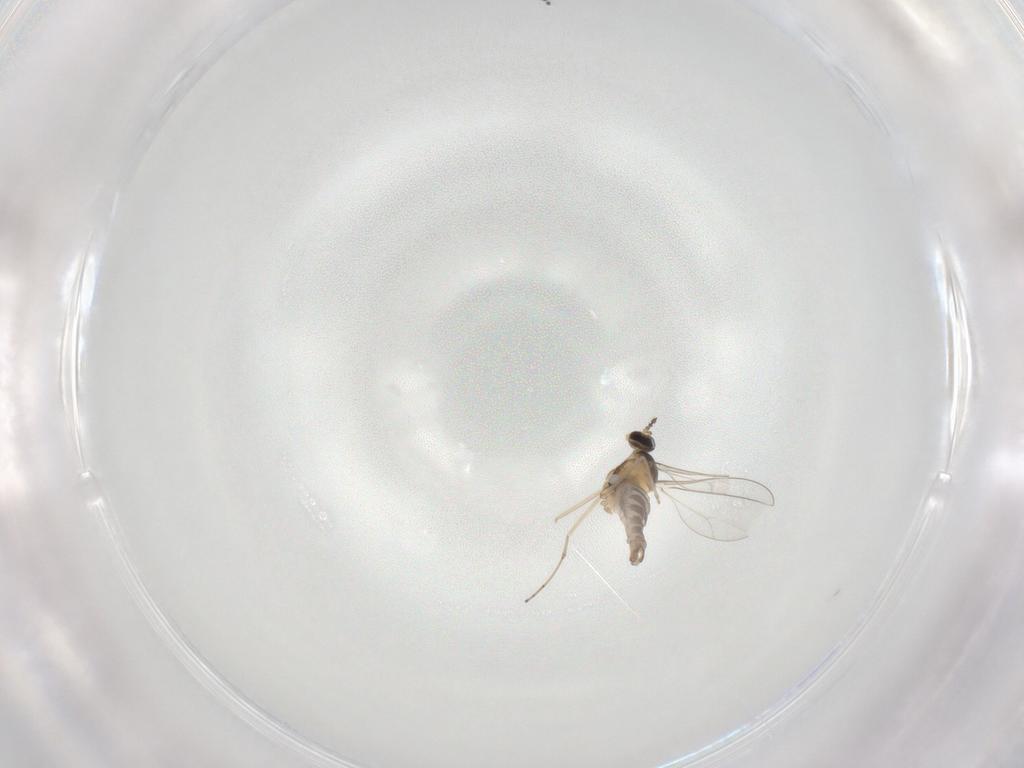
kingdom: Animalia
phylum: Arthropoda
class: Insecta
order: Diptera
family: Cecidomyiidae
